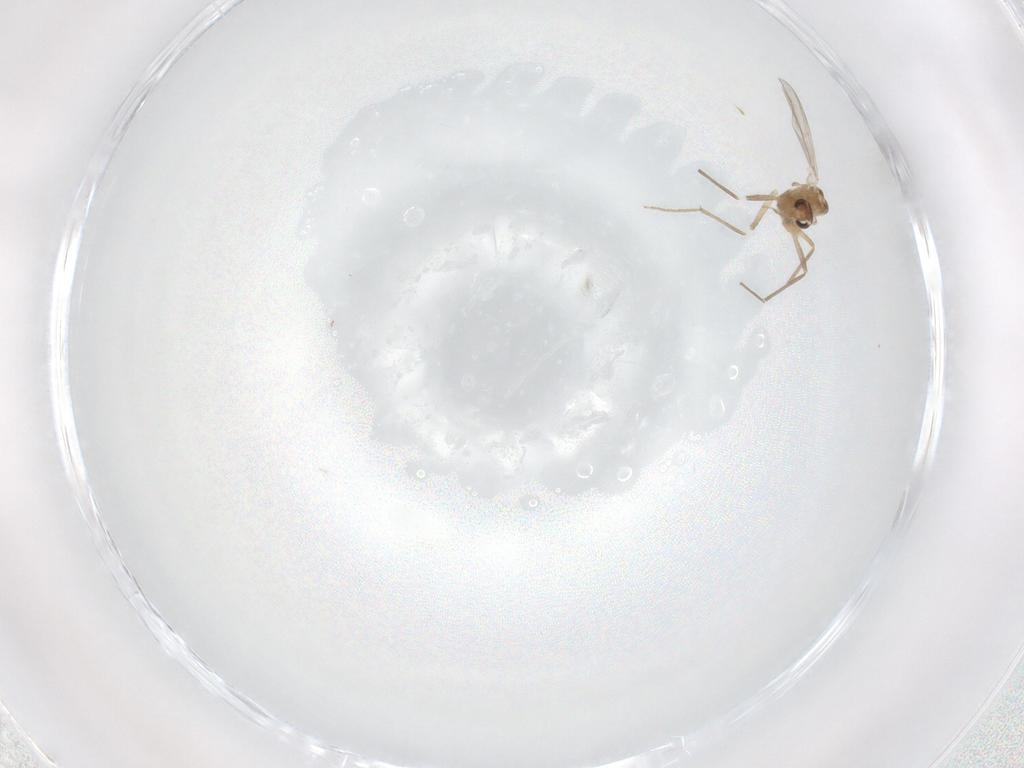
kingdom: Animalia
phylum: Arthropoda
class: Insecta
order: Diptera
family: Chironomidae
